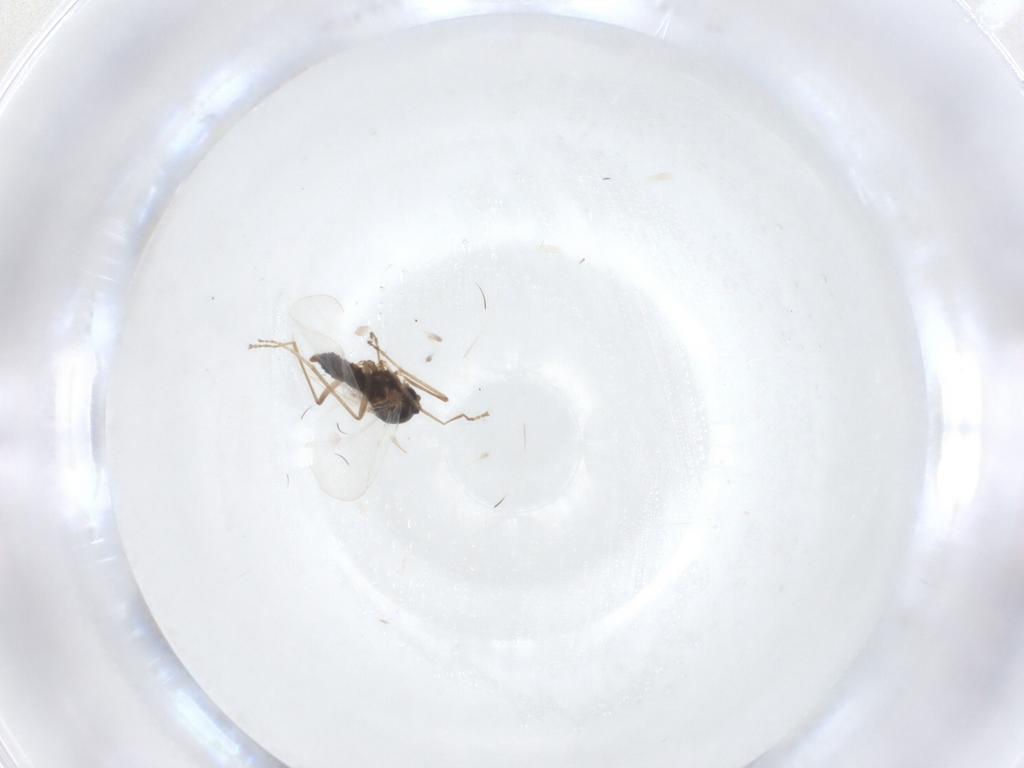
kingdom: Animalia
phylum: Arthropoda
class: Insecta
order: Diptera
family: Cecidomyiidae
